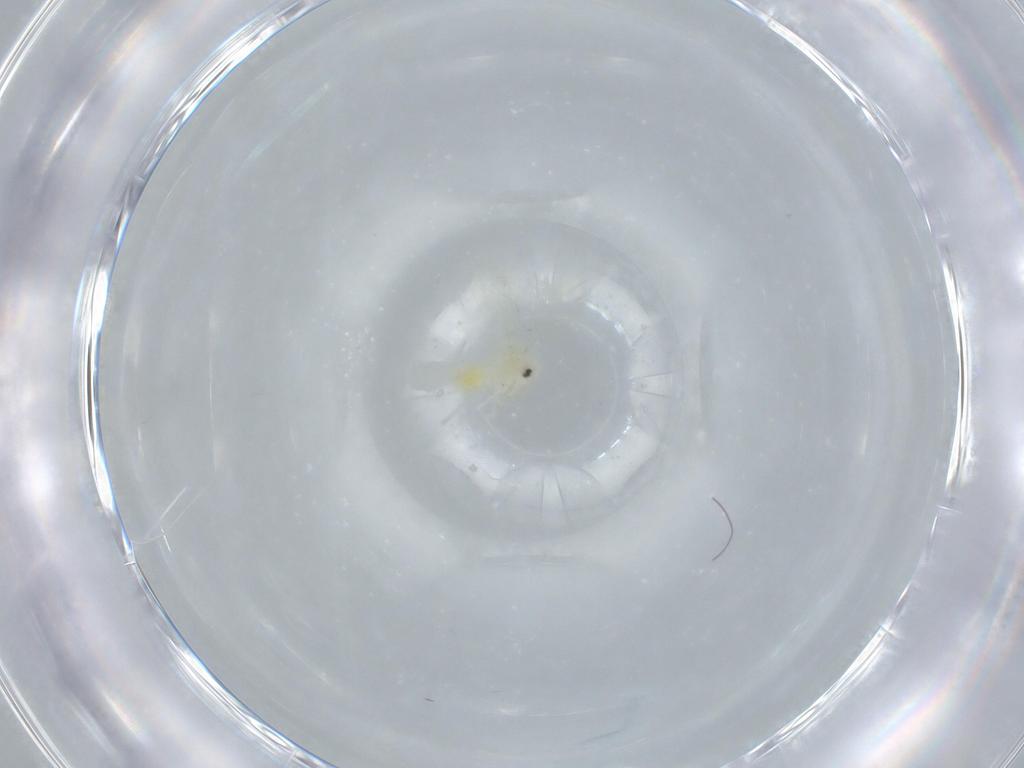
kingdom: Animalia
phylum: Arthropoda
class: Insecta
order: Hemiptera
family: Aleyrodidae
